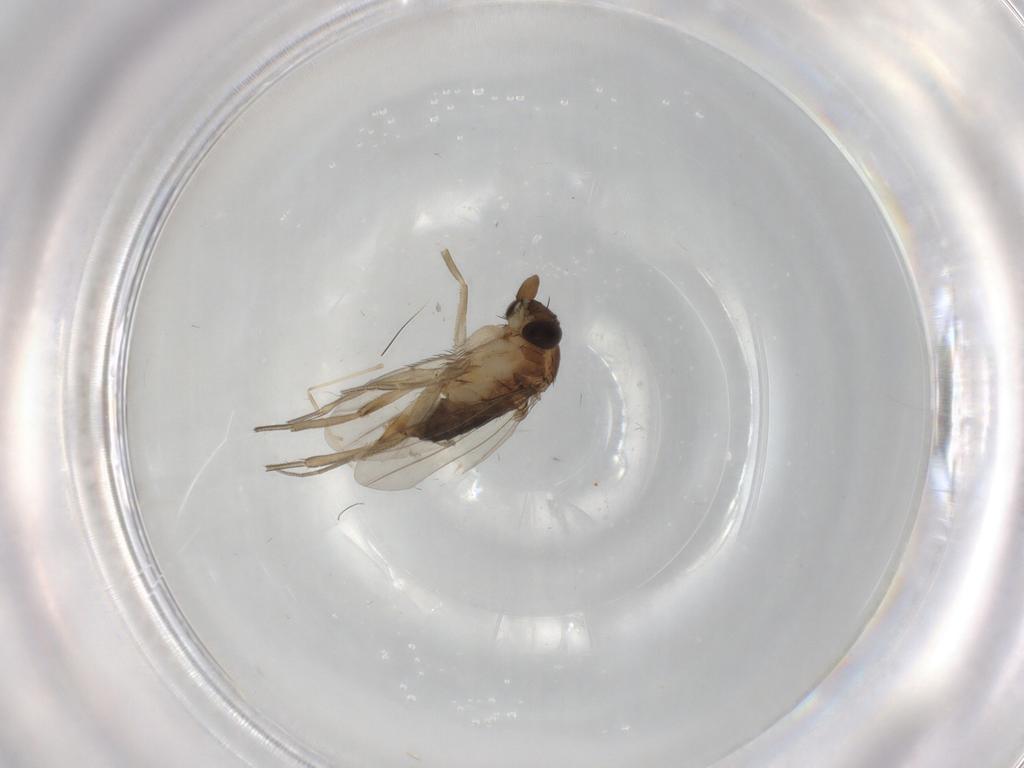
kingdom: Animalia
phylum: Arthropoda
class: Insecta
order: Diptera
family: Phoridae
